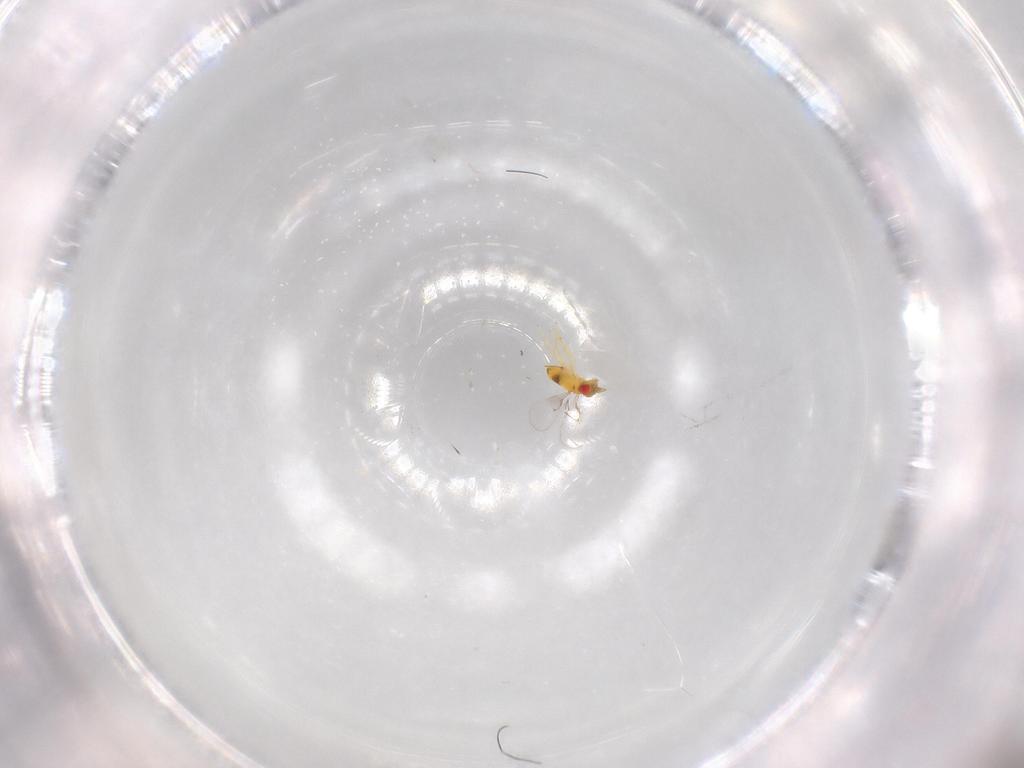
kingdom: Animalia
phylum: Arthropoda
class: Insecta
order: Hymenoptera
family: Trichogrammatidae
